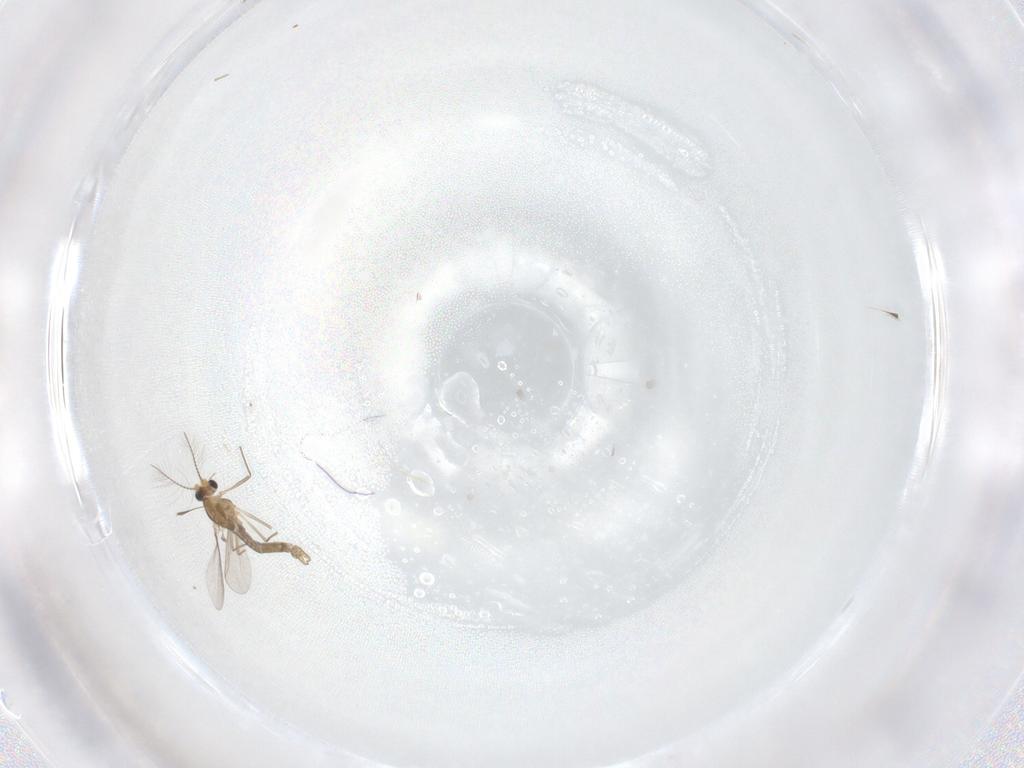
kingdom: Animalia
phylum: Arthropoda
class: Insecta
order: Diptera
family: Chironomidae
